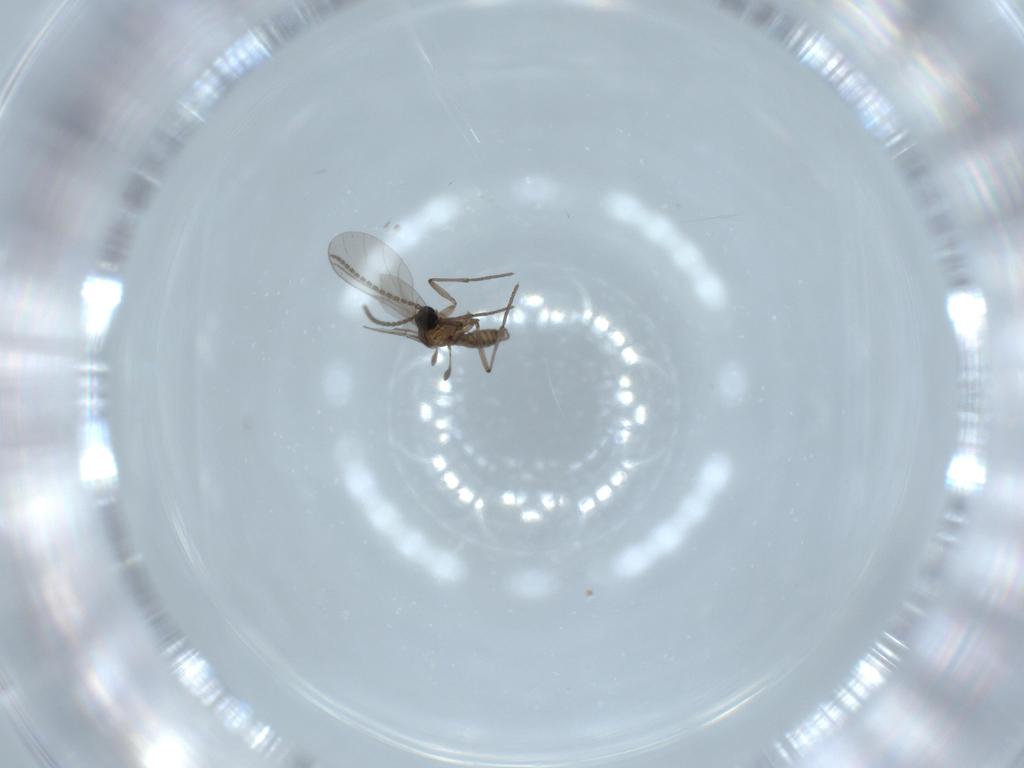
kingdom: Animalia
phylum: Arthropoda
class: Insecta
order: Diptera
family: Sciaridae
